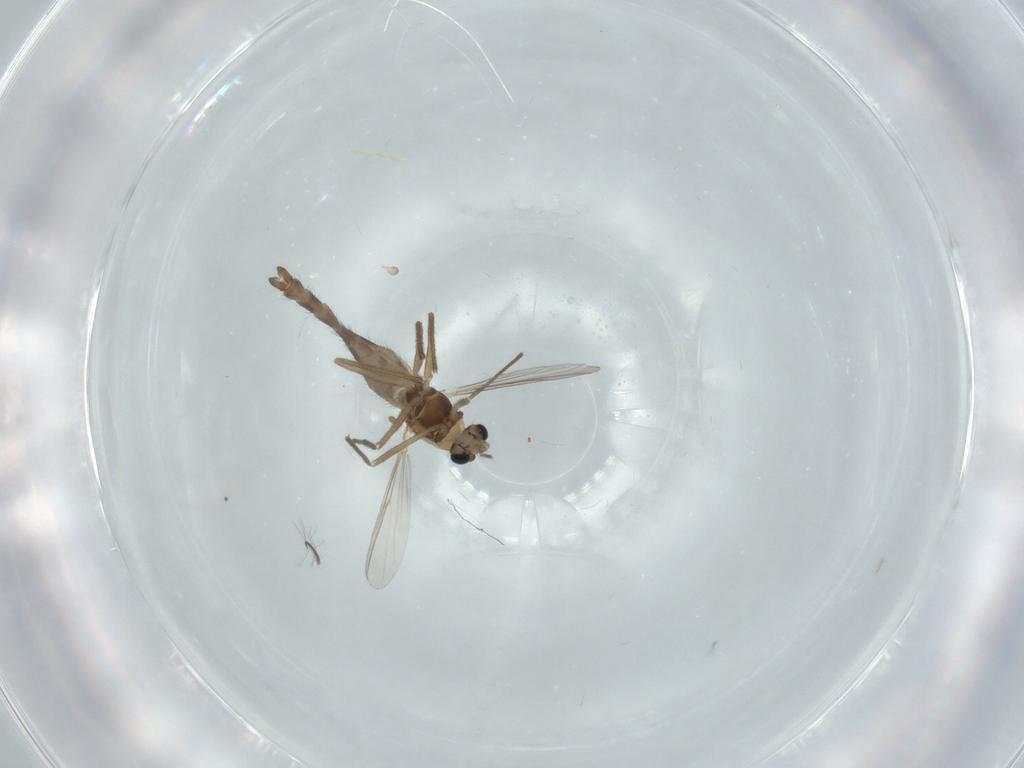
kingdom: Animalia
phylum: Arthropoda
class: Insecta
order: Diptera
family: Chironomidae
